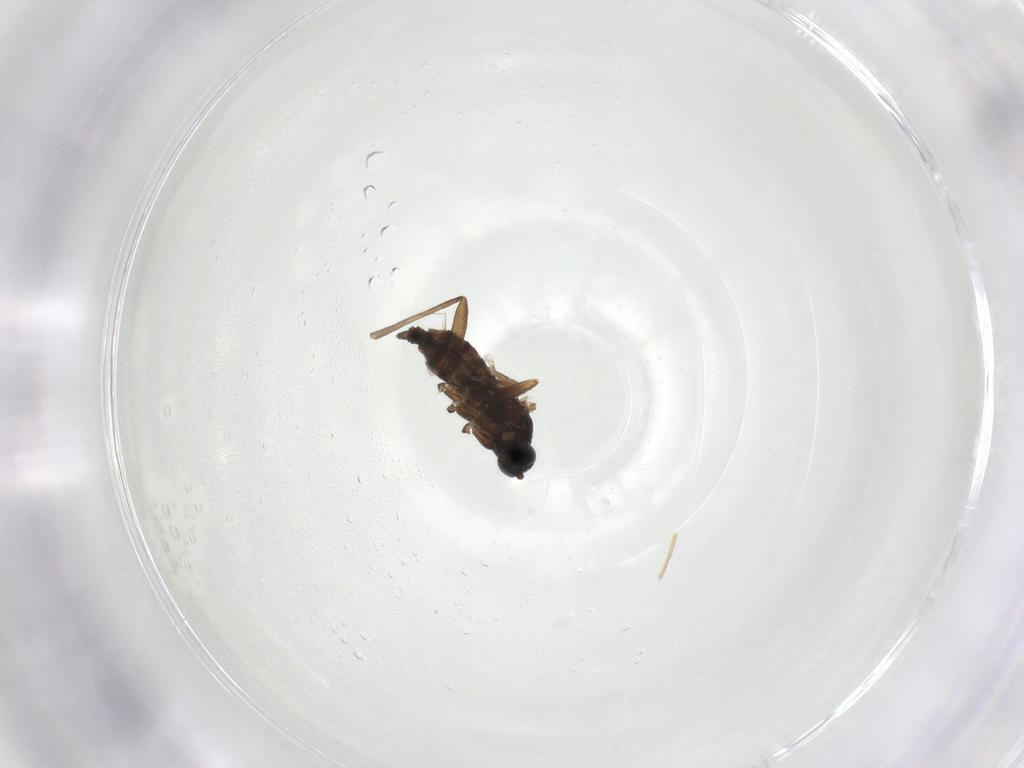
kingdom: Animalia
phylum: Arthropoda
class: Insecta
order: Diptera
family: Sciaridae
